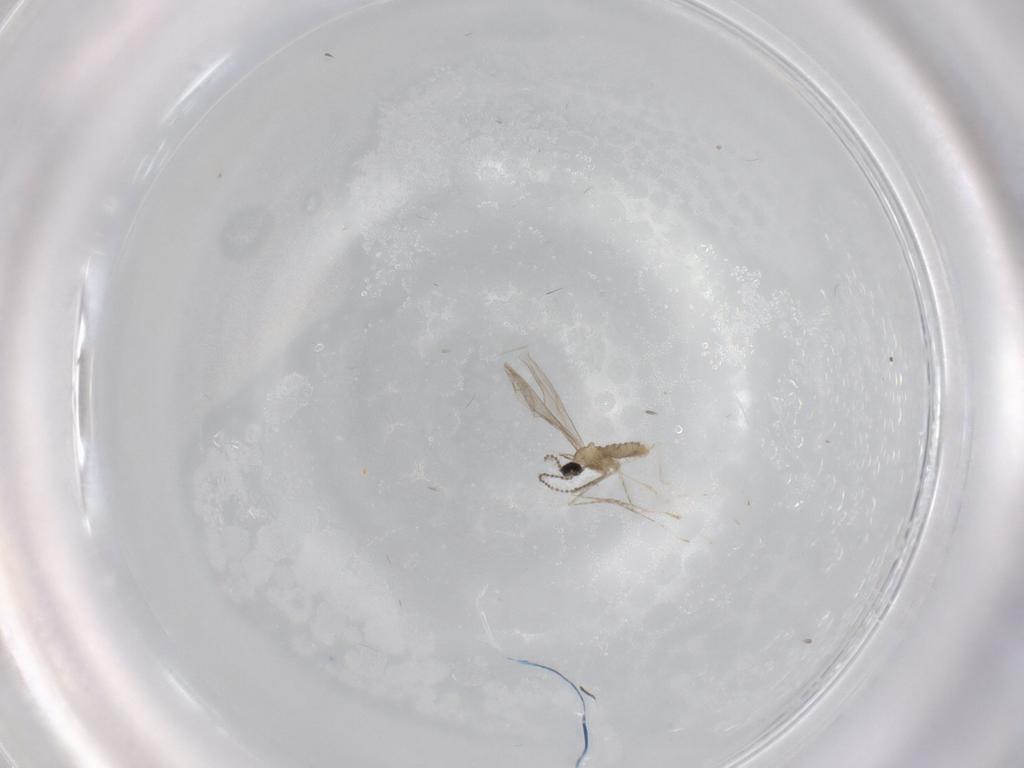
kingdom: Animalia
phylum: Arthropoda
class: Insecta
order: Diptera
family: Cecidomyiidae
